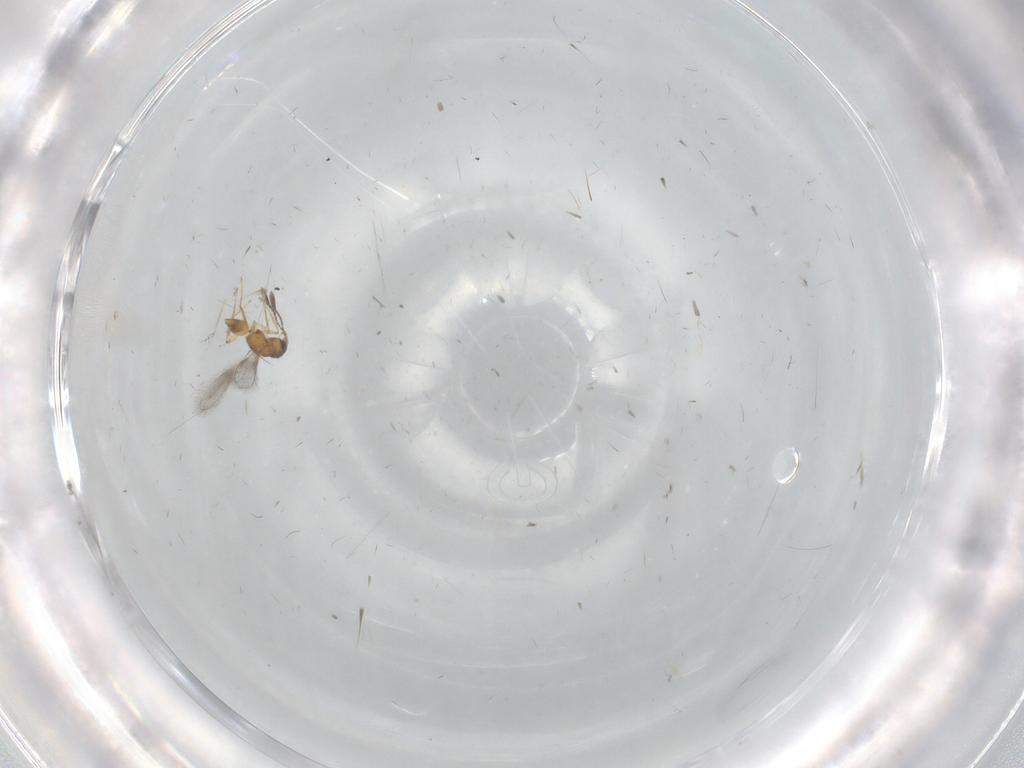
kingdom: Animalia
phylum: Arthropoda
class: Insecta
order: Hymenoptera
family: Mymaridae
